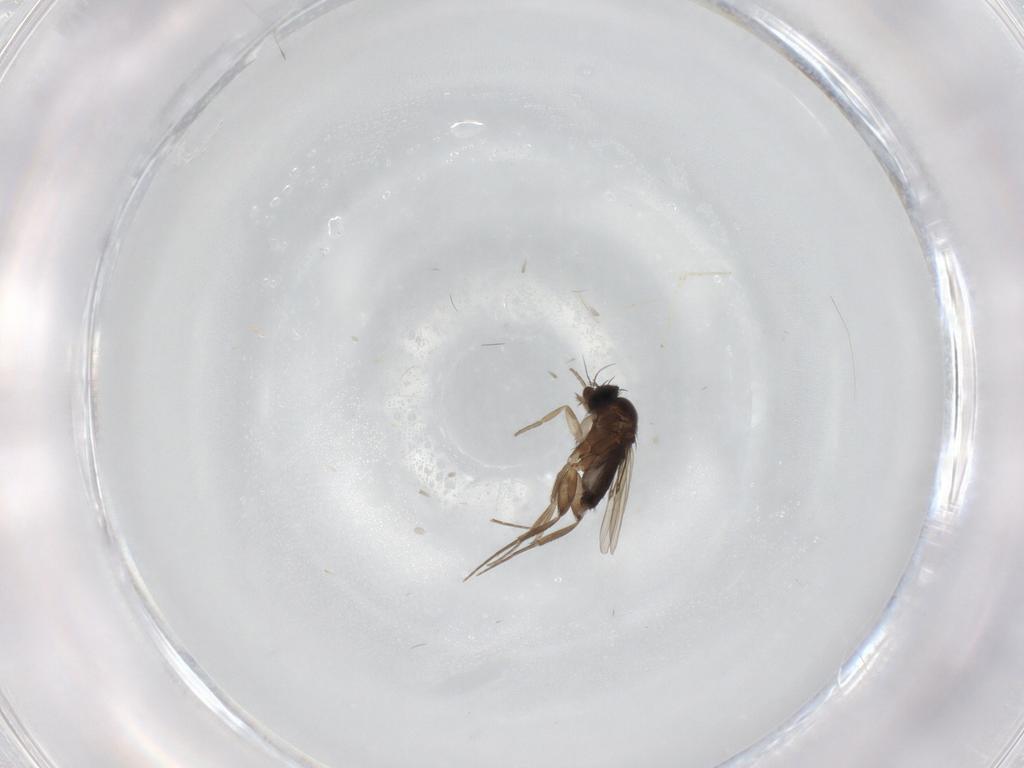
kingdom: Animalia
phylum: Arthropoda
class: Insecta
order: Diptera
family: Phoridae
